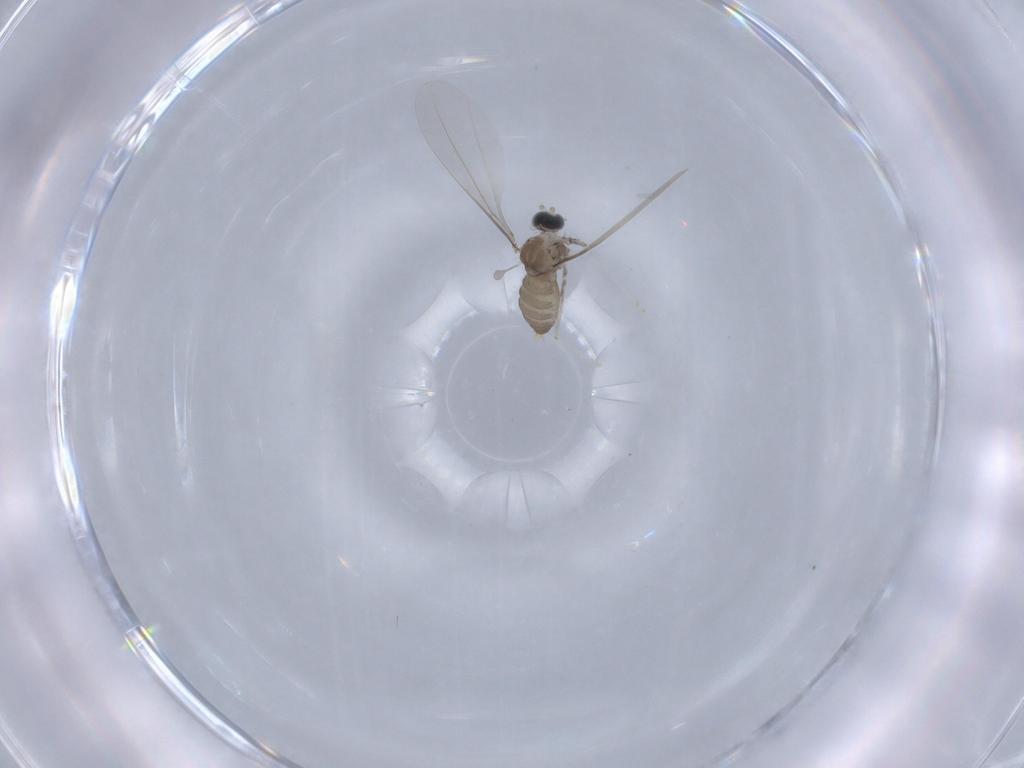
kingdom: Animalia
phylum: Arthropoda
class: Insecta
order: Diptera
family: Cecidomyiidae
